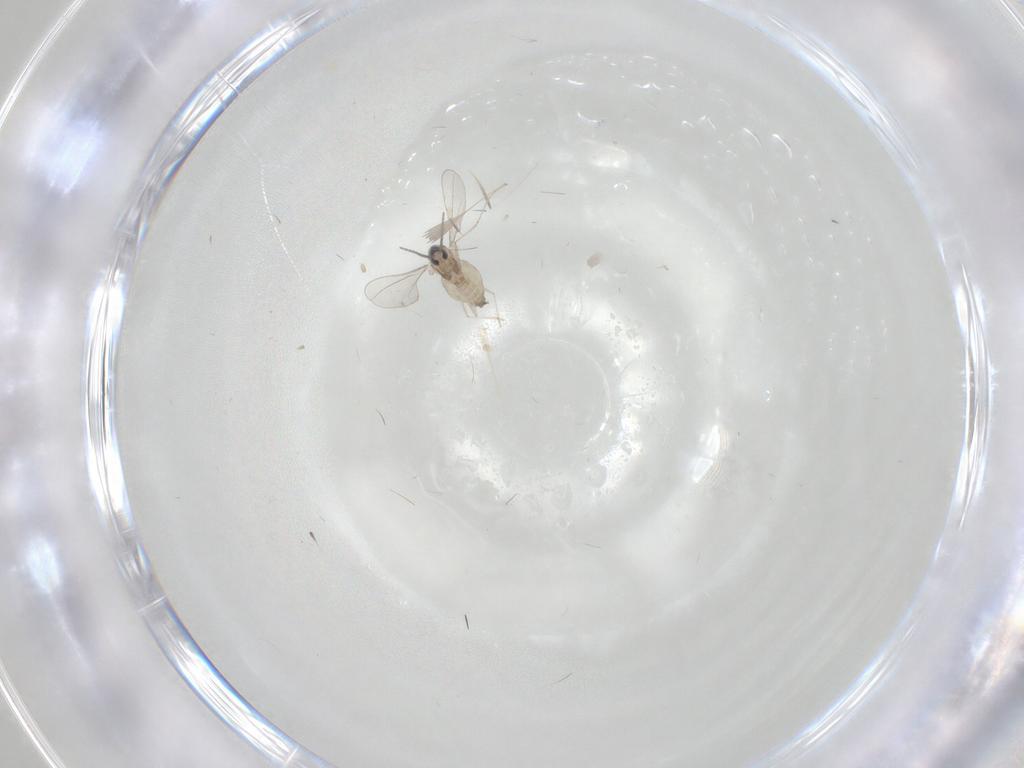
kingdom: Animalia
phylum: Arthropoda
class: Insecta
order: Diptera
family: Cecidomyiidae
